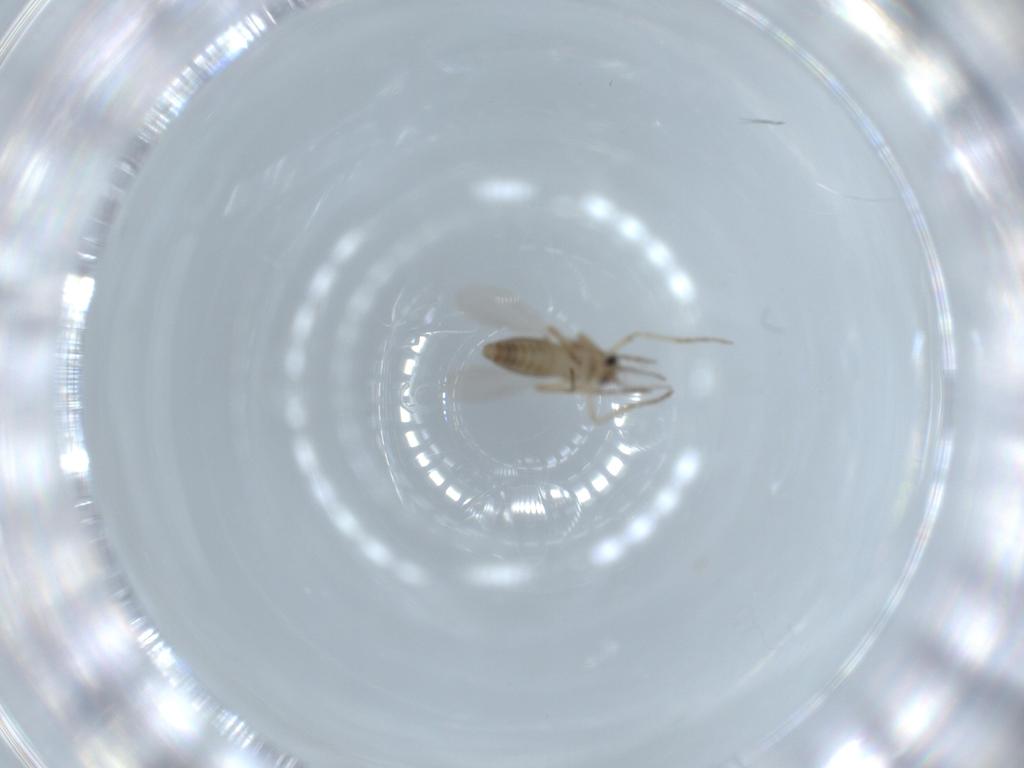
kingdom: Animalia
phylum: Arthropoda
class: Insecta
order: Diptera
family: Ceratopogonidae
